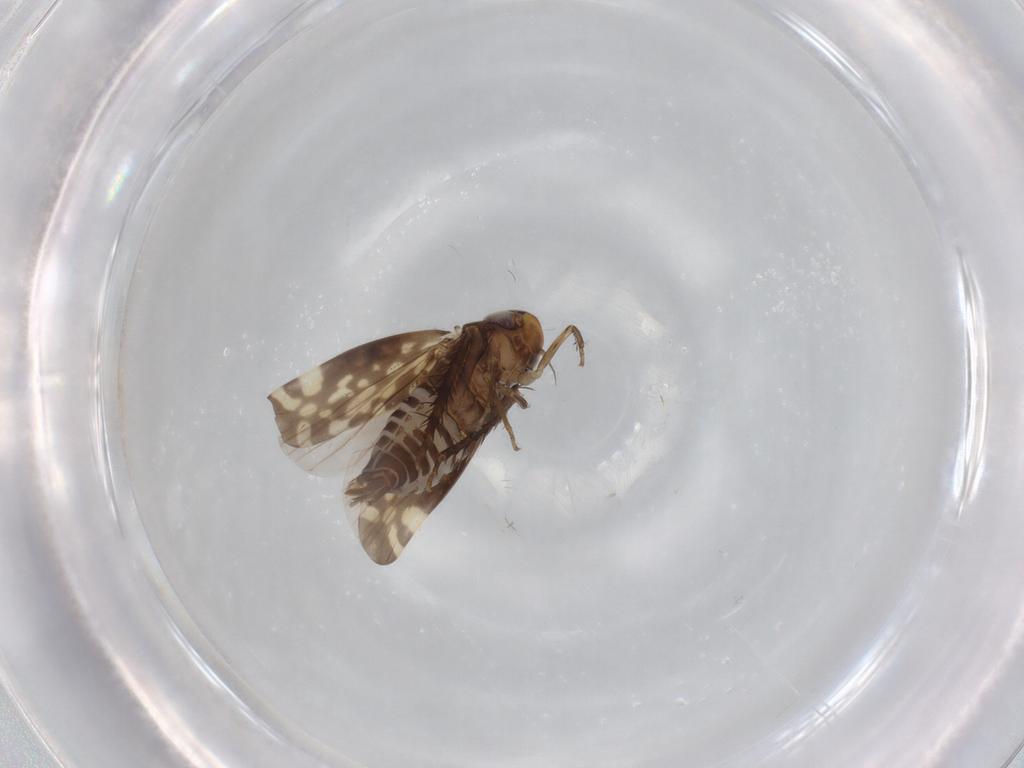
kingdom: Animalia
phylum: Arthropoda
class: Insecta
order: Hemiptera
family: Cicadellidae
